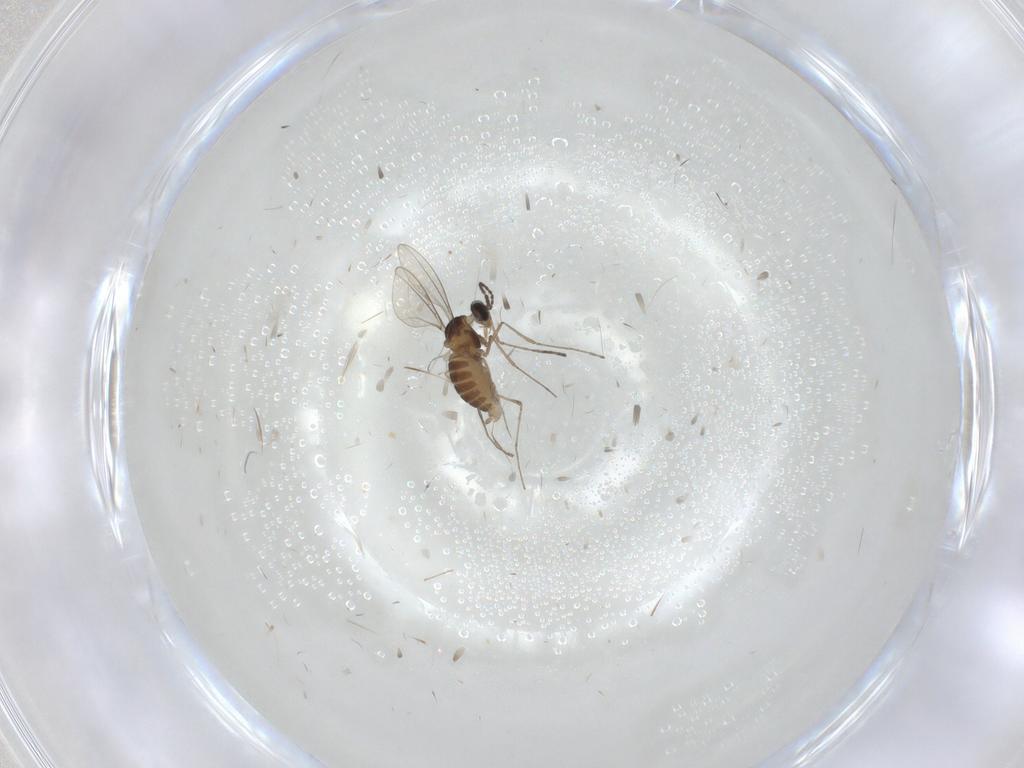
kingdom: Animalia
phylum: Arthropoda
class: Insecta
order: Diptera
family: Cecidomyiidae
